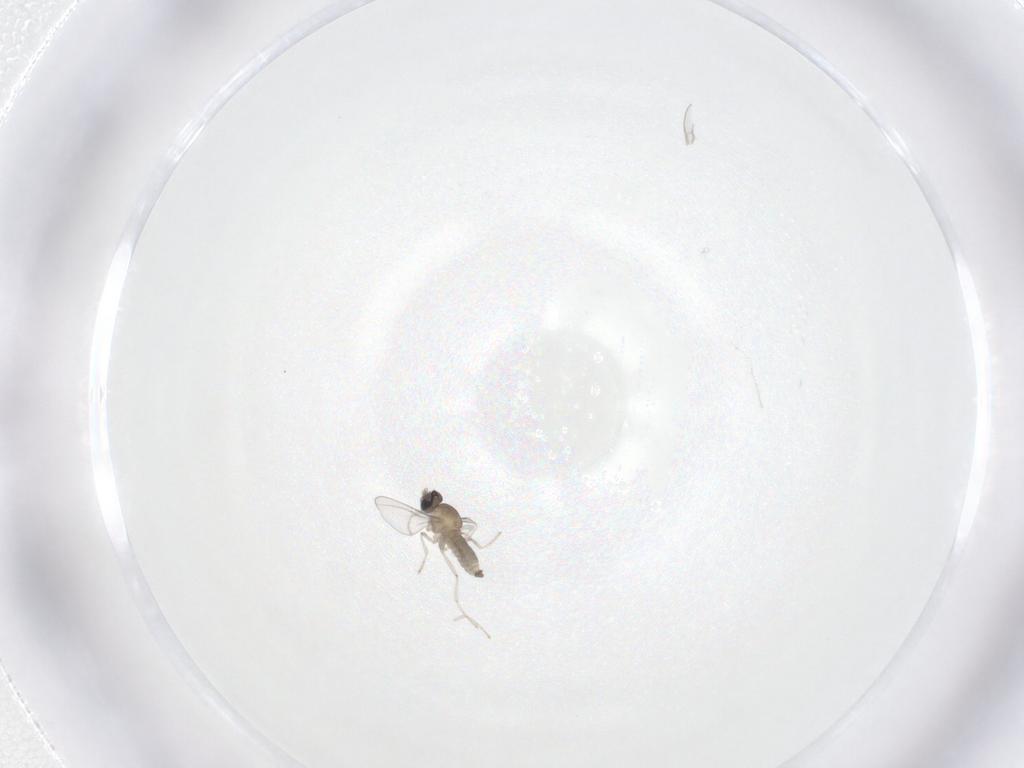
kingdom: Animalia
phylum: Arthropoda
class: Insecta
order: Diptera
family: Cecidomyiidae
